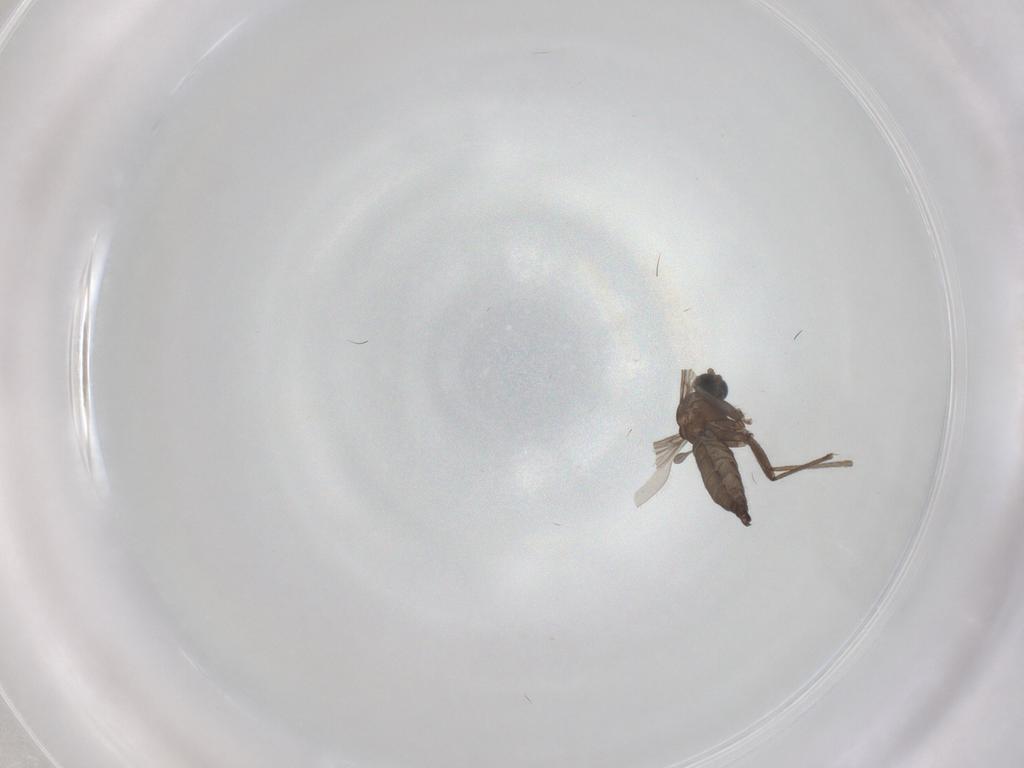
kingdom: Animalia
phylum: Arthropoda
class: Insecta
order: Diptera
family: Sciaridae
